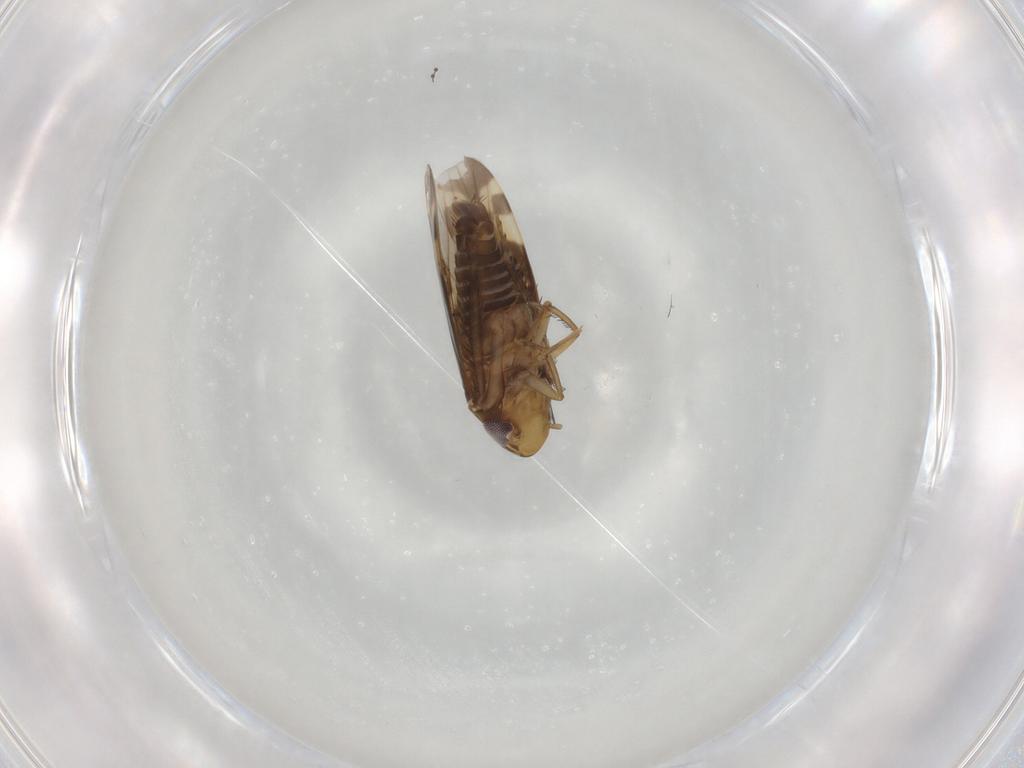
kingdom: Animalia
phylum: Arthropoda
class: Insecta
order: Hemiptera
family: Cicadellidae
